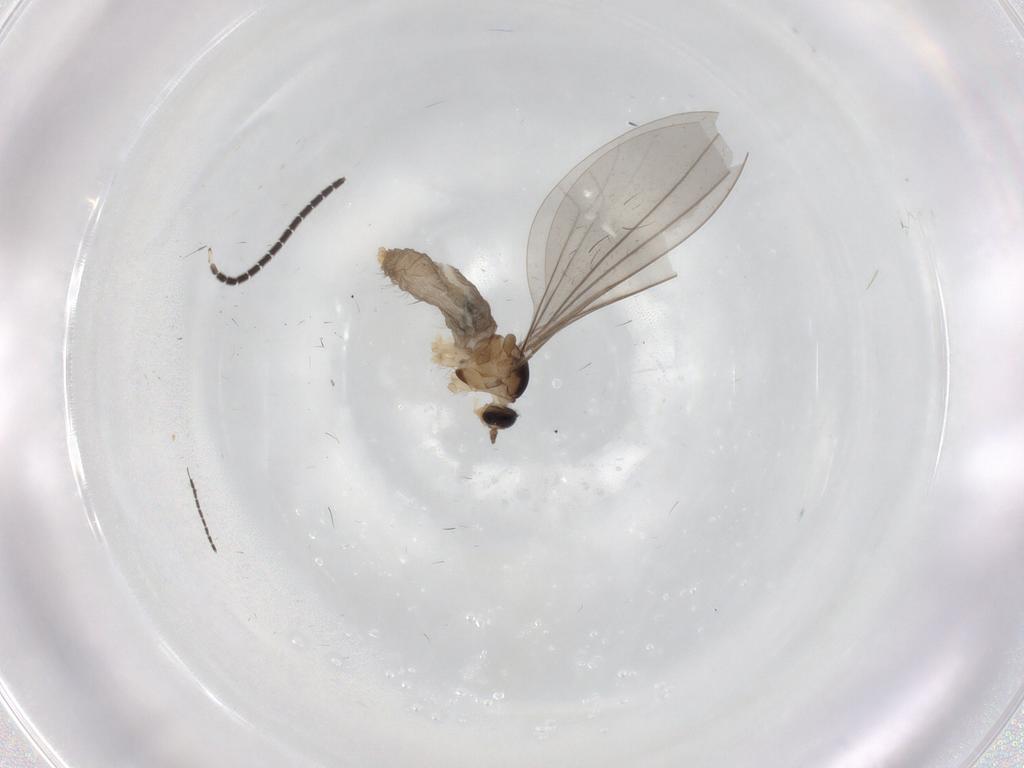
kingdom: Animalia
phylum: Arthropoda
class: Insecta
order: Diptera
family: Cecidomyiidae
